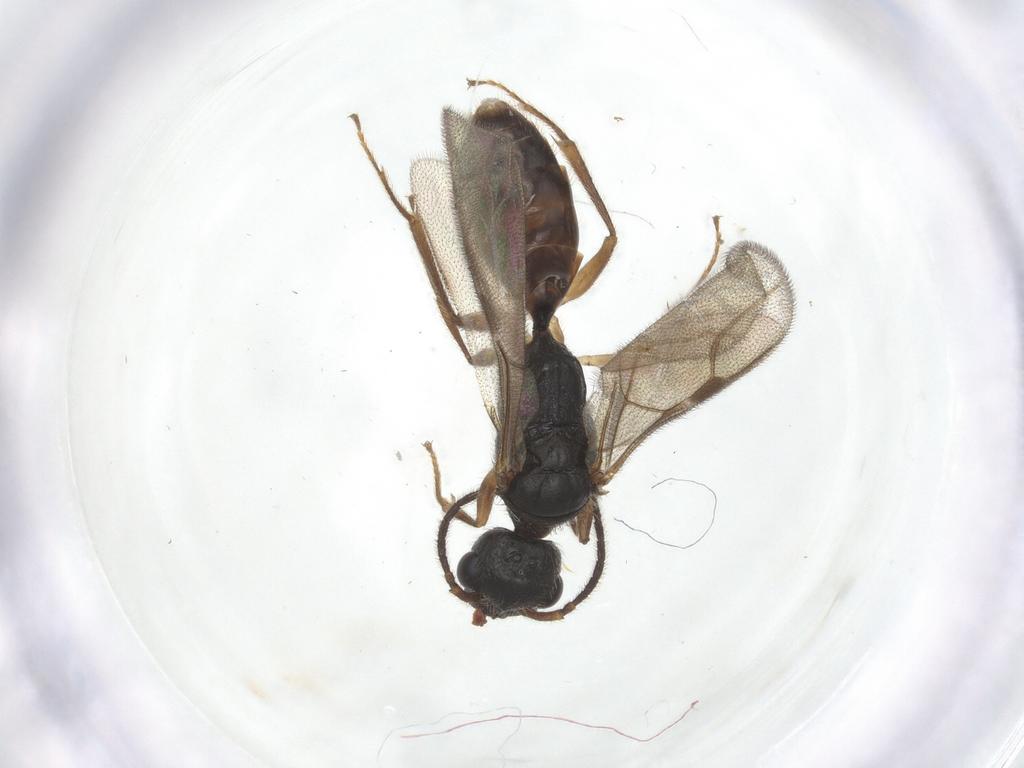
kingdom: Animalia
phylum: Arthropoda
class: Insecta
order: Hymenoptera
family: Bethylidae
